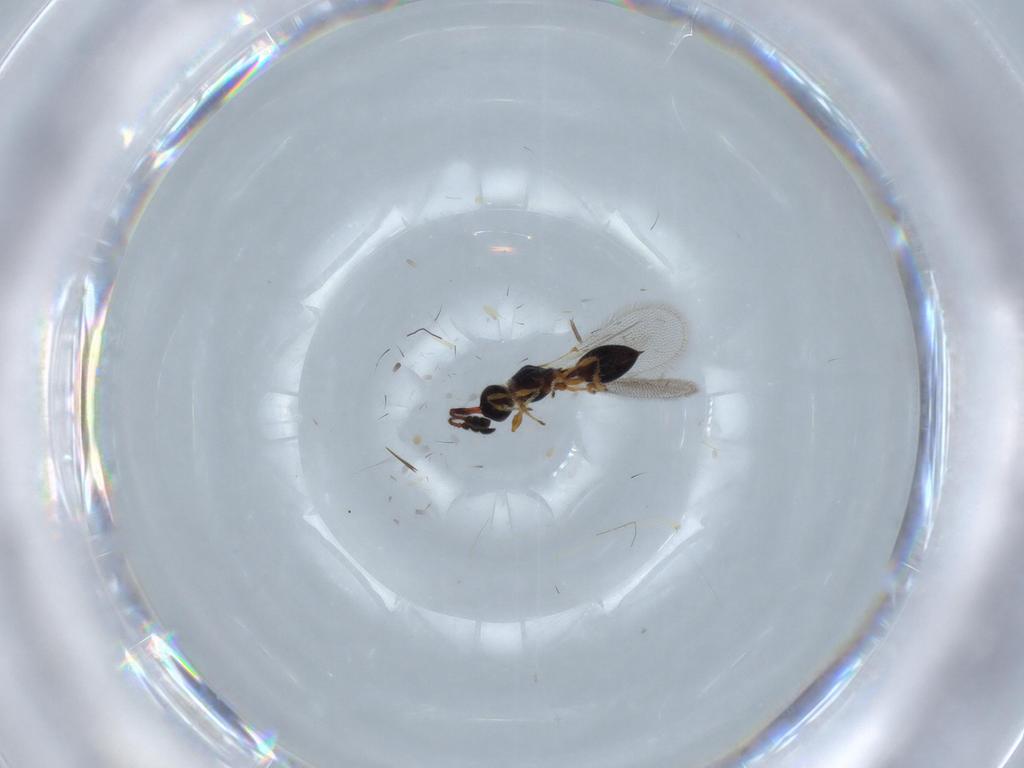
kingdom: Animalia
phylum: Arthropoda
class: Insecta
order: Hymenoptera
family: Diapriidae
